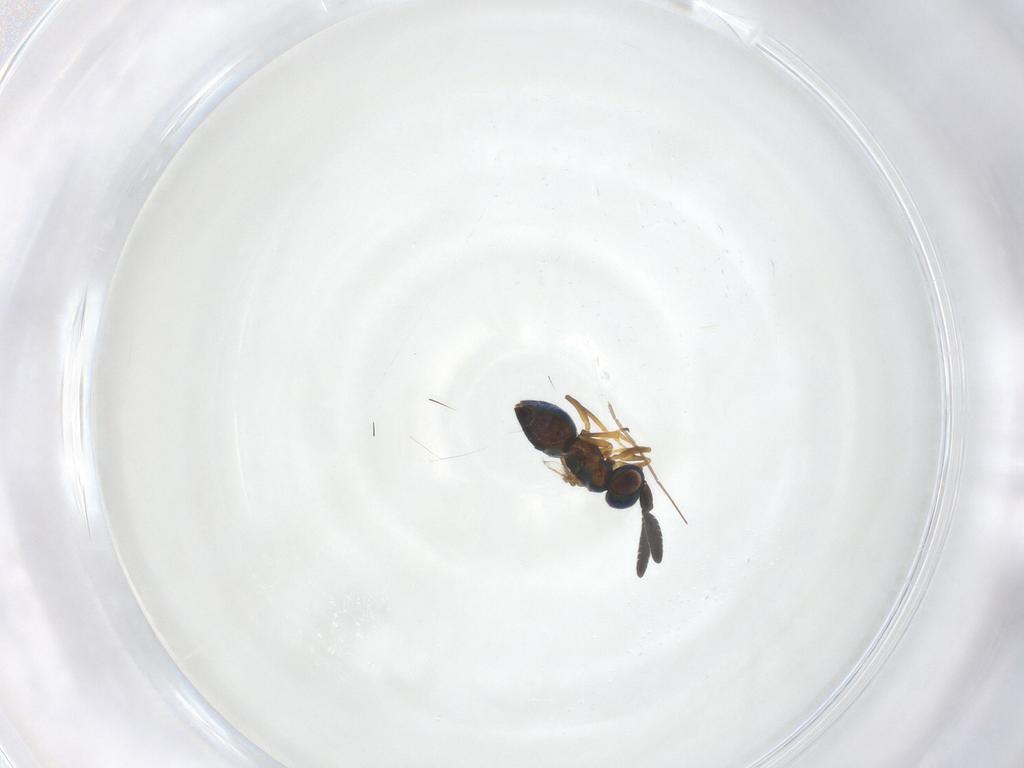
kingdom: Animalia
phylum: Arthropoda
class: Insecta
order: Hymenoptera
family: Encyrtidae
